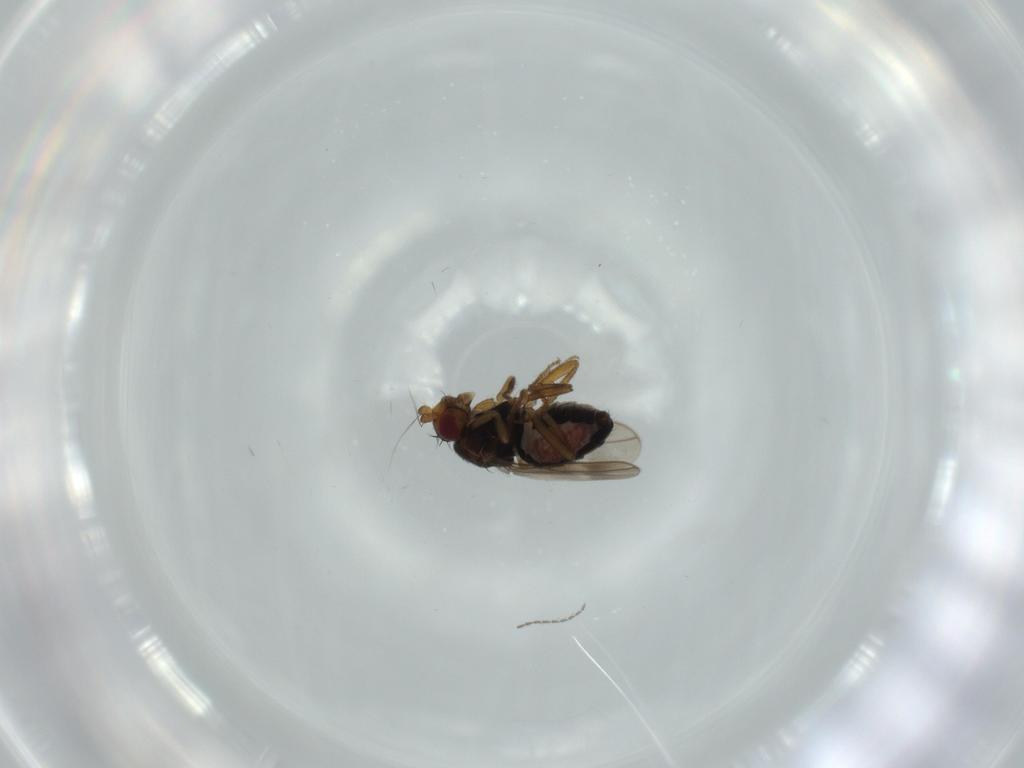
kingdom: Animalia
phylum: Arthropoda
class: Insecta
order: Diptera
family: Sphaeroceridae
